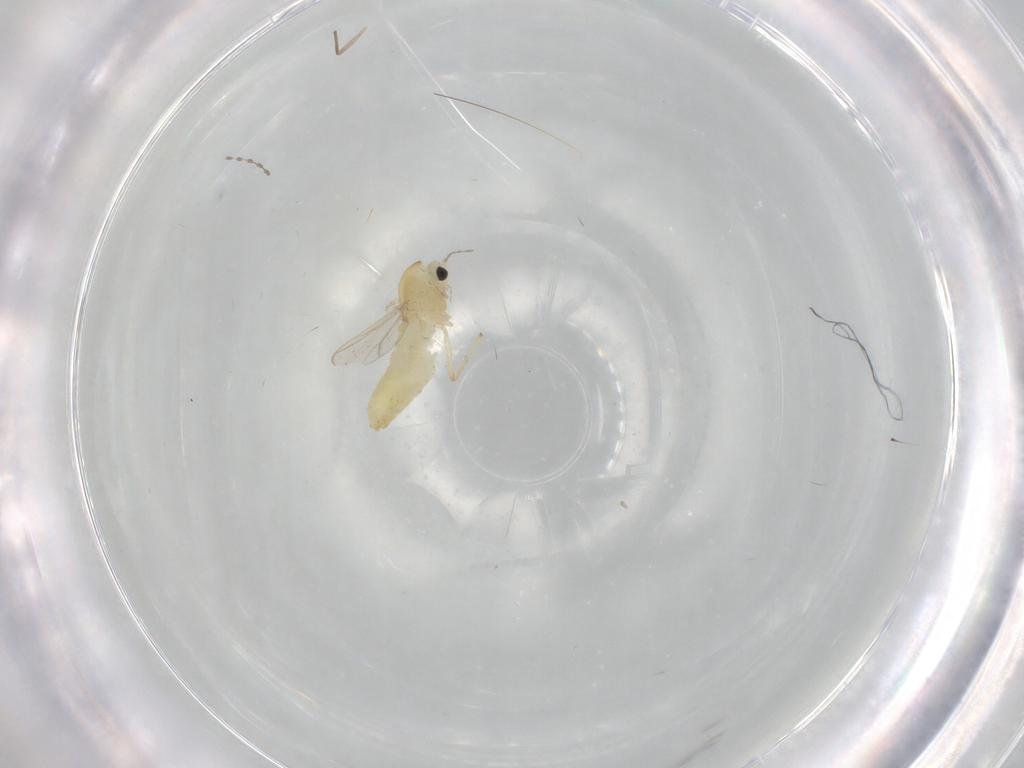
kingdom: Animalia
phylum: Arthropoda
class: Insecta
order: Diptera
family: Chironomidae
